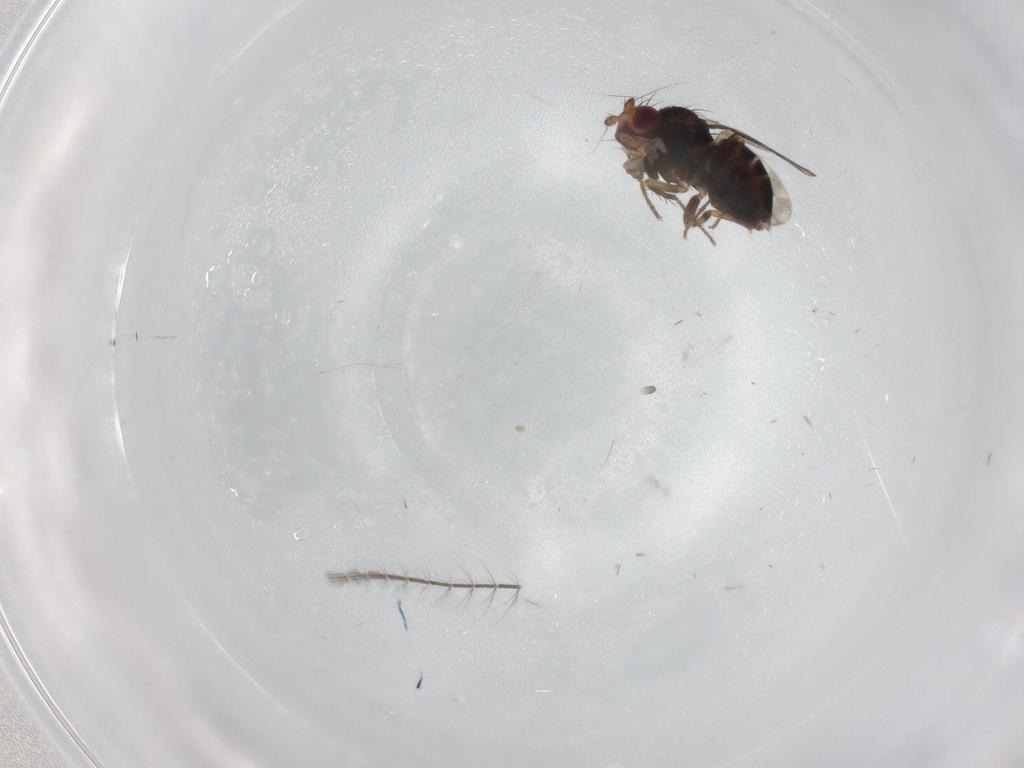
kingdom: Animalia
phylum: Arthropoda
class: Insecta
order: Diptera
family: Sphaeroceridae
